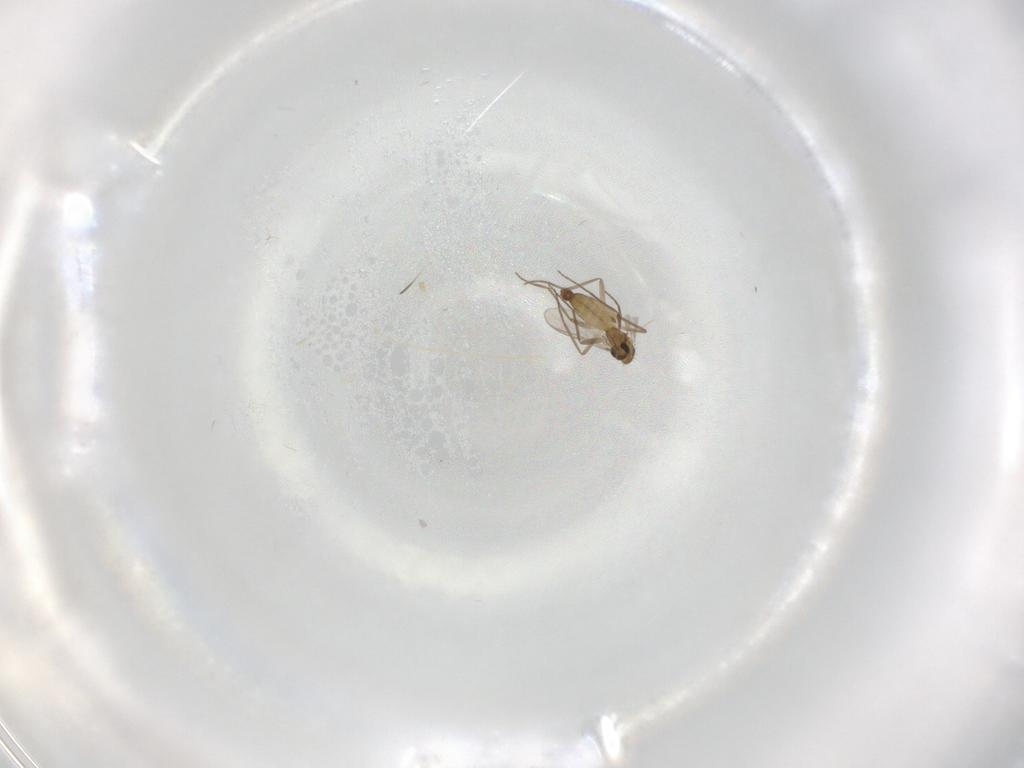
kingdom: Animalia
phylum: Arthropoda
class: Insecta
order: Diptera
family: Chironomidae
